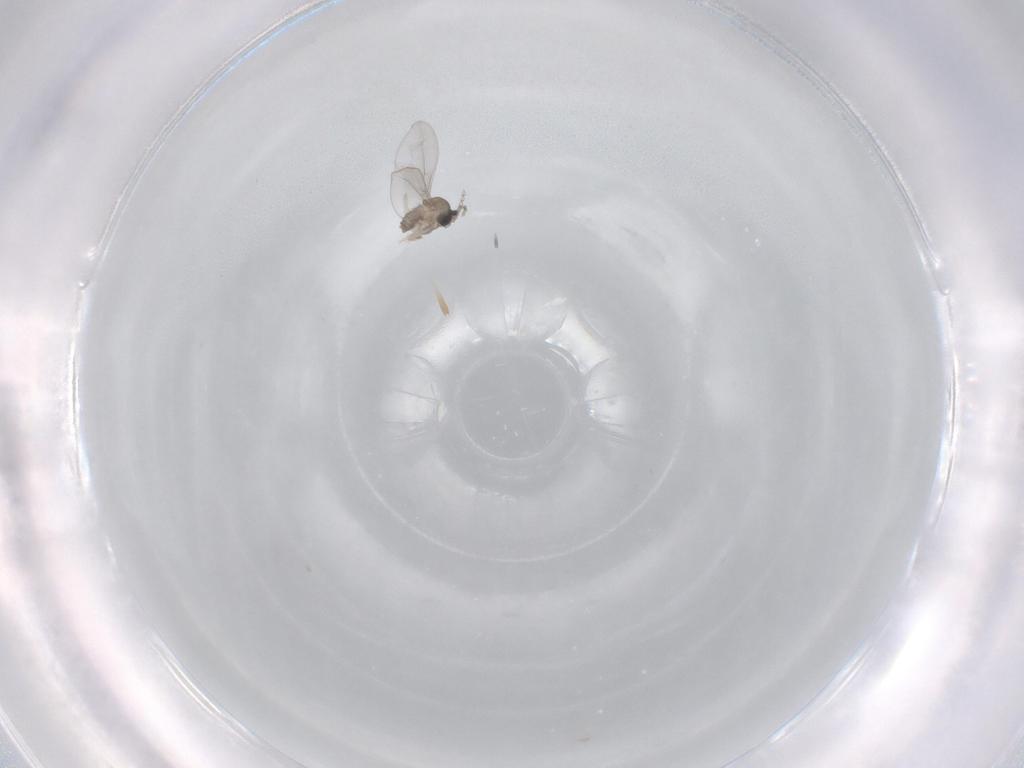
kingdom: Animalia
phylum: Arthropoda
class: Insecta
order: Diptera
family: Cecidomyiidae
